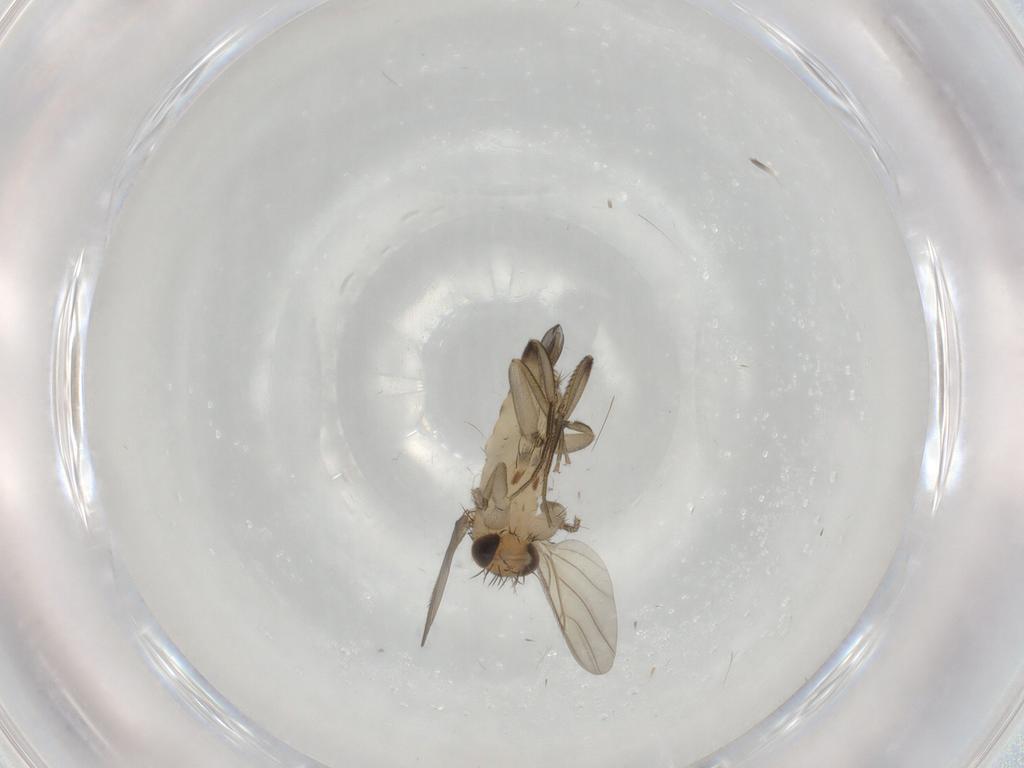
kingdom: Animalia
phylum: Arthropoda
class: Insecta
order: Diptera
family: Phoridae
